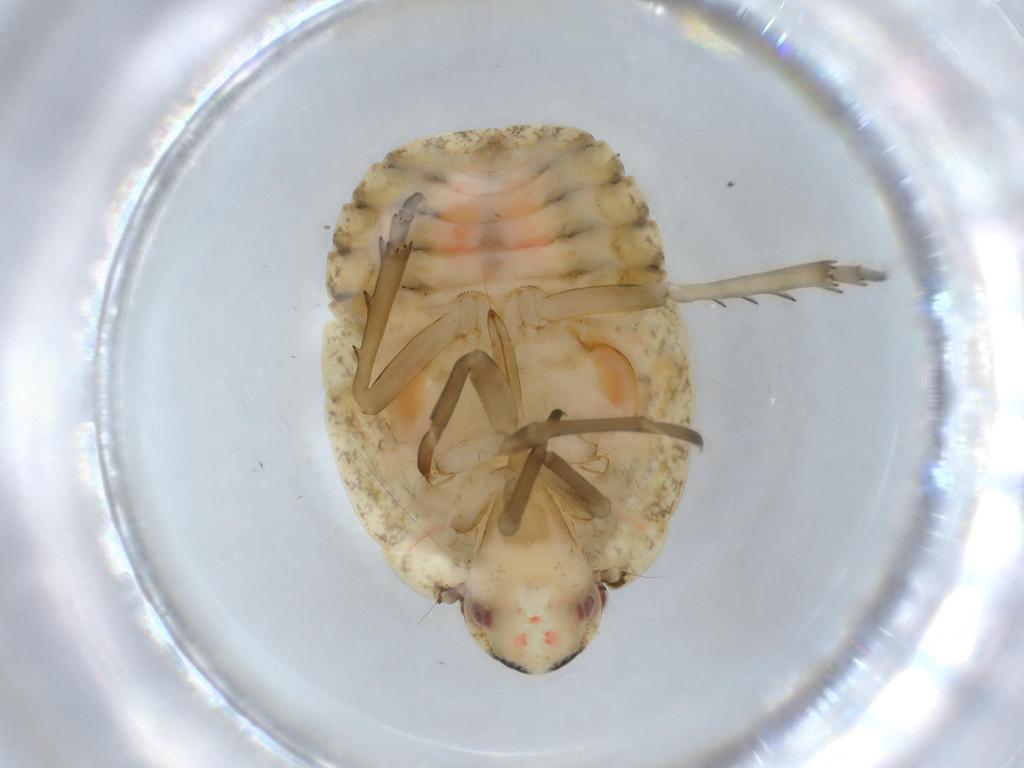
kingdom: Animalia
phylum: Arthropoda
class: Insecta
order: Hemiptera
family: Flatidae
